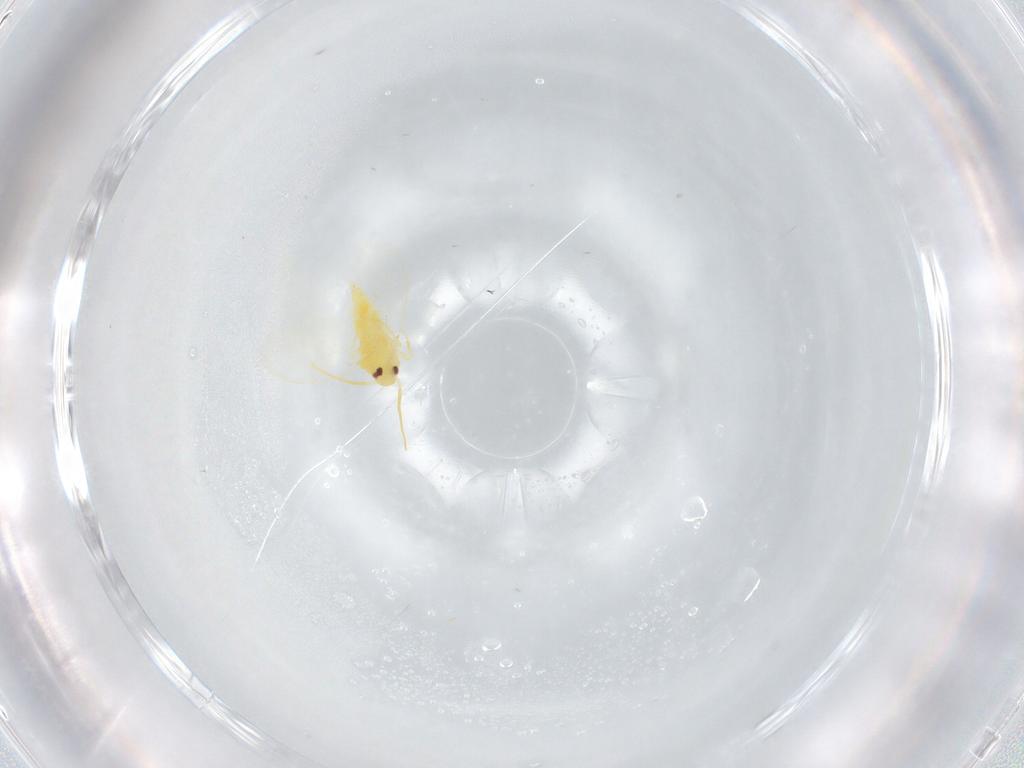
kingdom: Animalia
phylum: Arthropoda
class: Insecta
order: Hemiptera
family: Aleyrodidae
